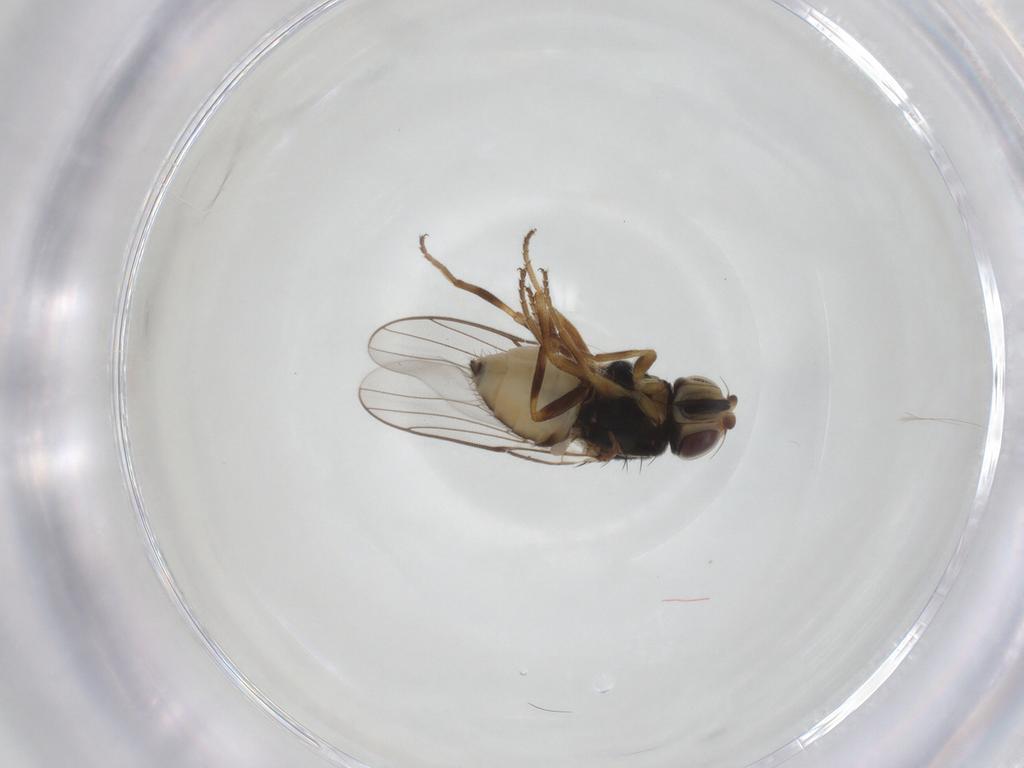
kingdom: Animalia
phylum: Arthropoda
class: Insecta
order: Diptera
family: Chloropidae
